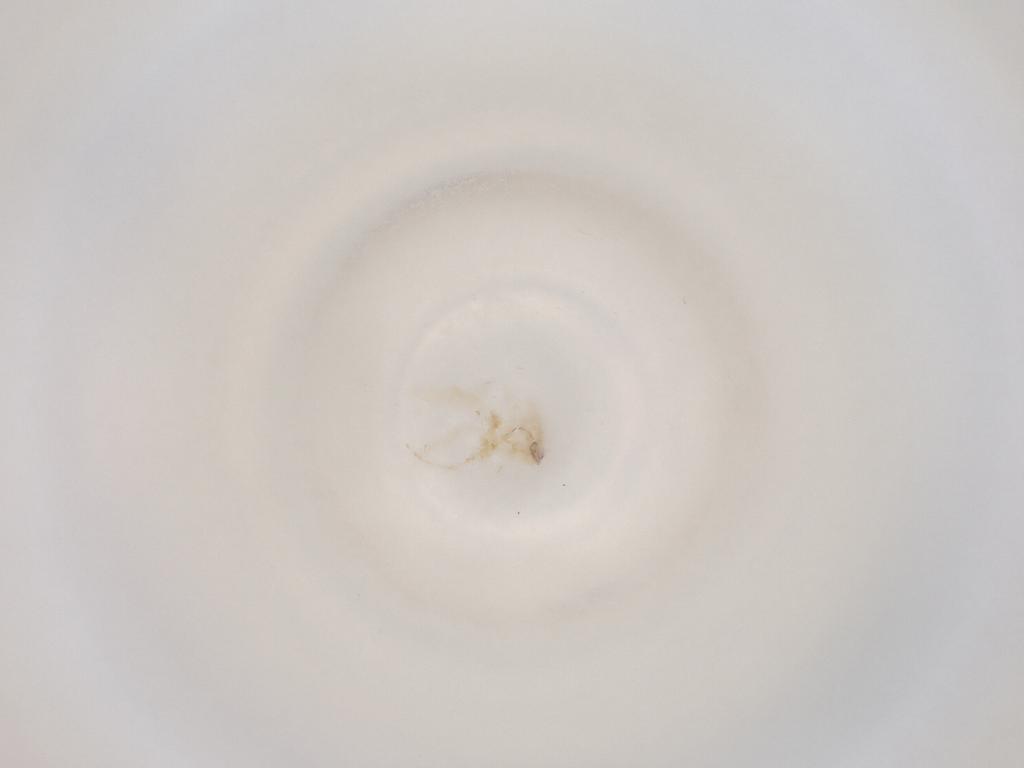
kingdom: Animalia
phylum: Arthropoda
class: Insecta
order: Diptera
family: Cecidomyiidae
